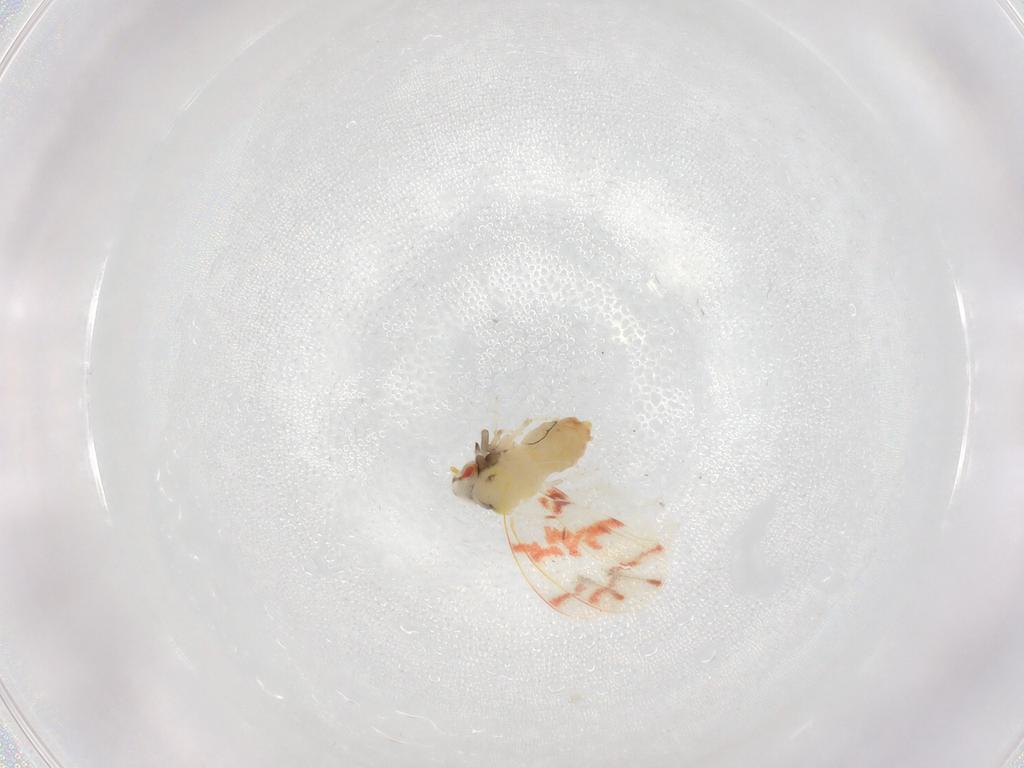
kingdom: Animalia
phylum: Arthropoda
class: Insecta
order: Hemiptera
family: Aleyrodidae
